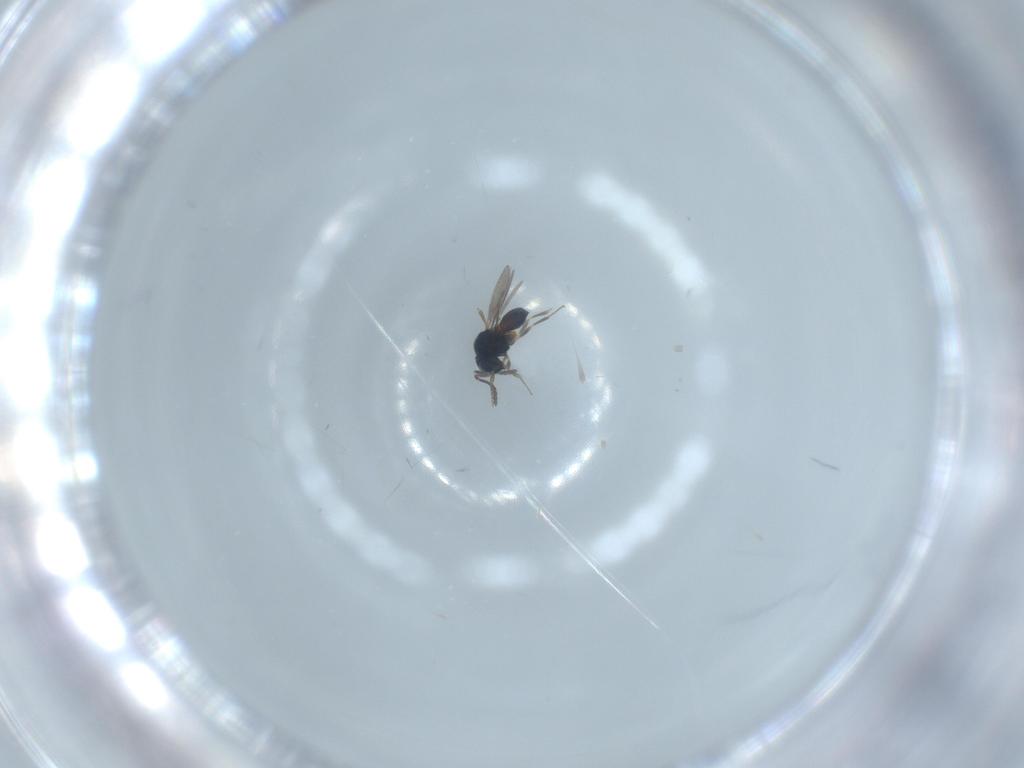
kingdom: Animalia
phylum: Arthropoda
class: Insecta
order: Hymenoptera
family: Scelionidae
